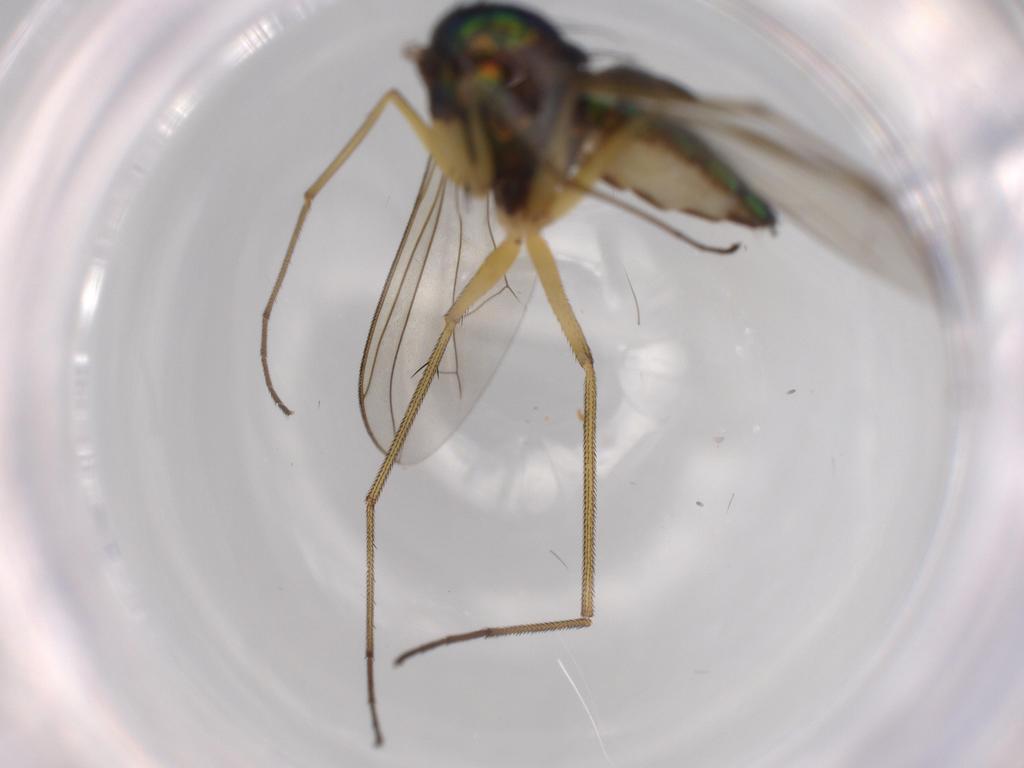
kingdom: Animalia
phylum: Arthropoda
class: Insecta
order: Diptera
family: Dolichopodidae
